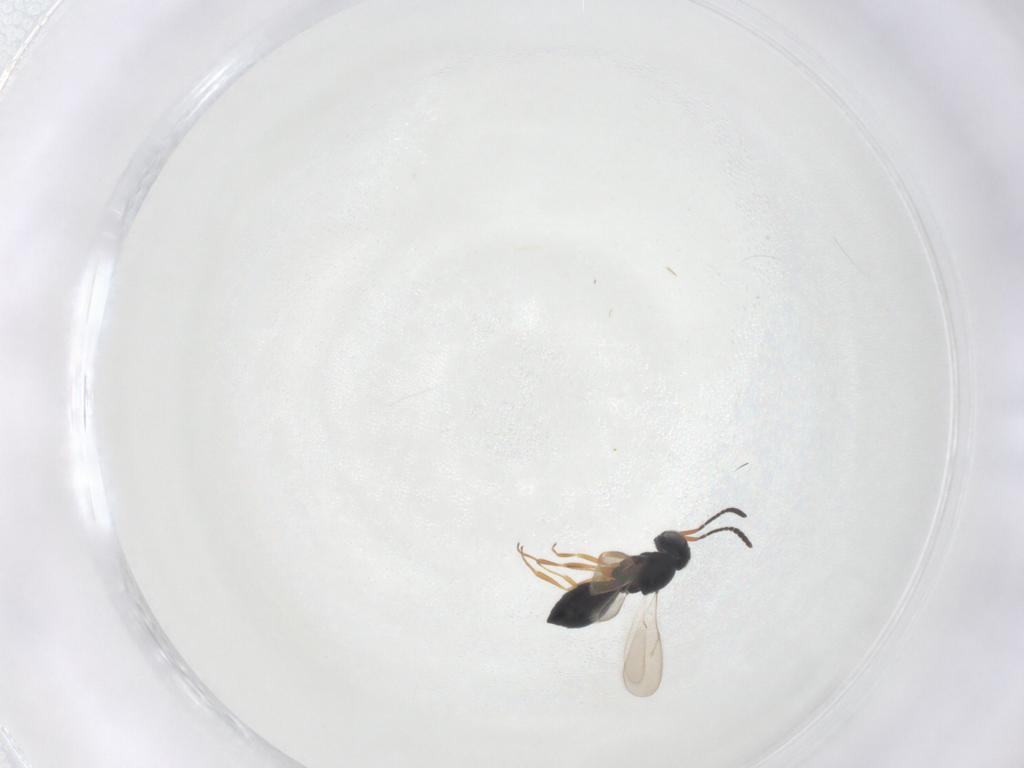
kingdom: Animalia
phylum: Arthropoda
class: Insecta
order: Hymenoptera
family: Scelionidae
